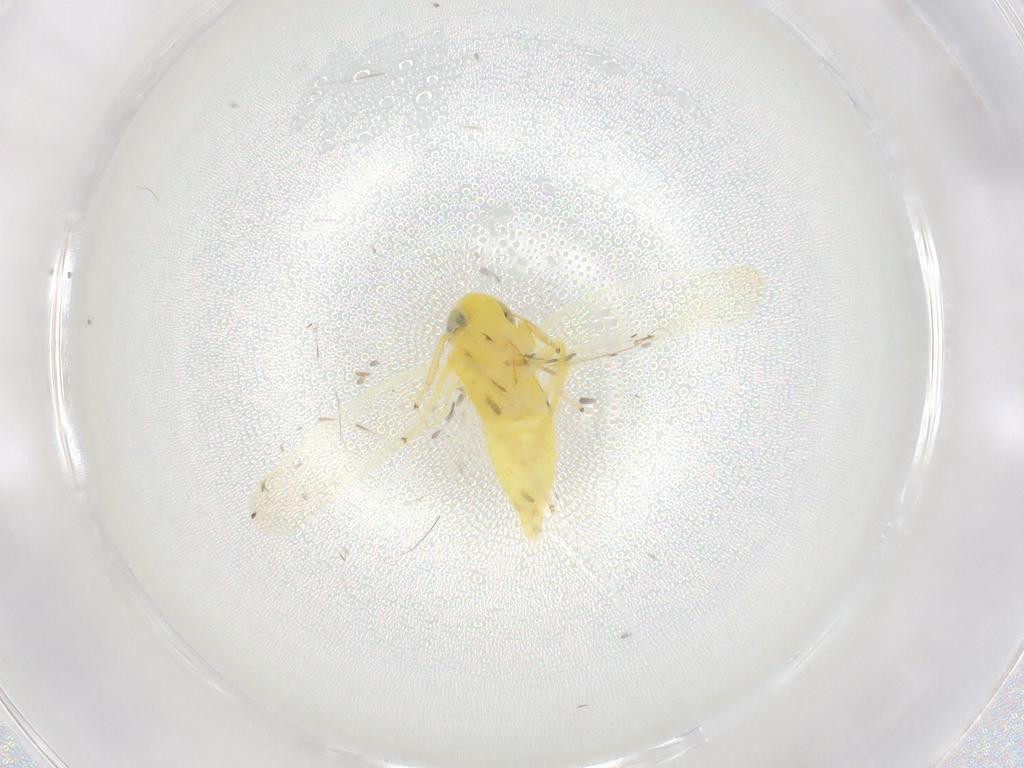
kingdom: Animalia
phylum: Arthropoda
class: Insecta
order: Hemiptera
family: Cicadellidae
